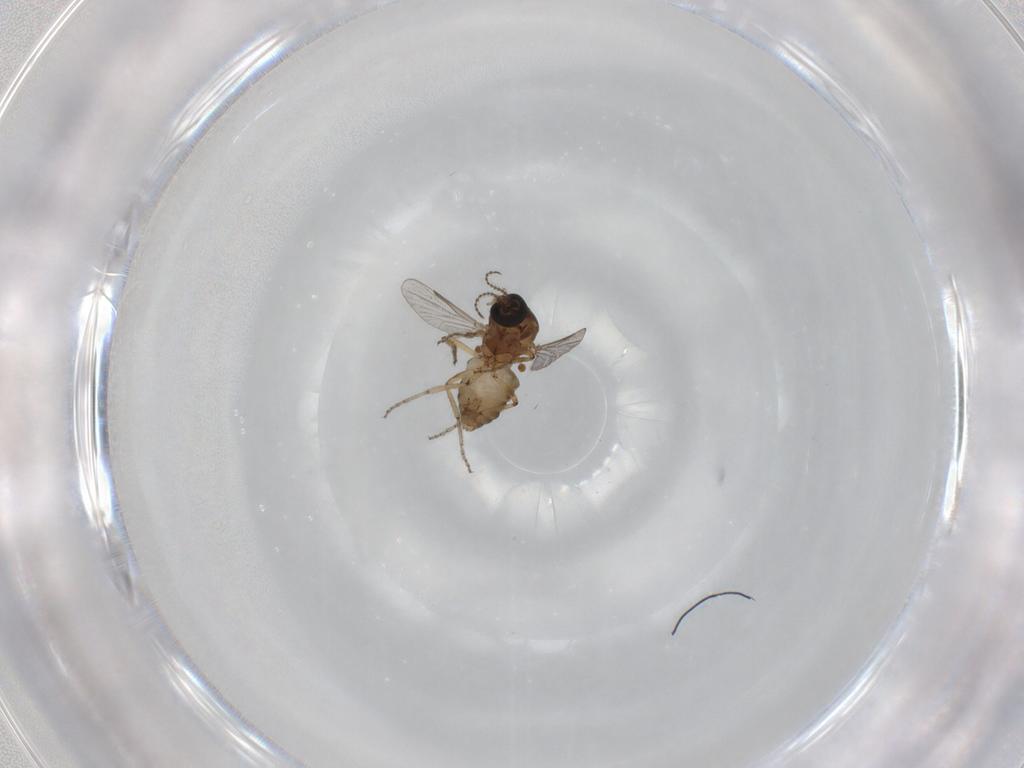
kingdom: Animalia
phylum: Arthropoda
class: Insecta
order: Diptera
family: Ceratopogonidae
